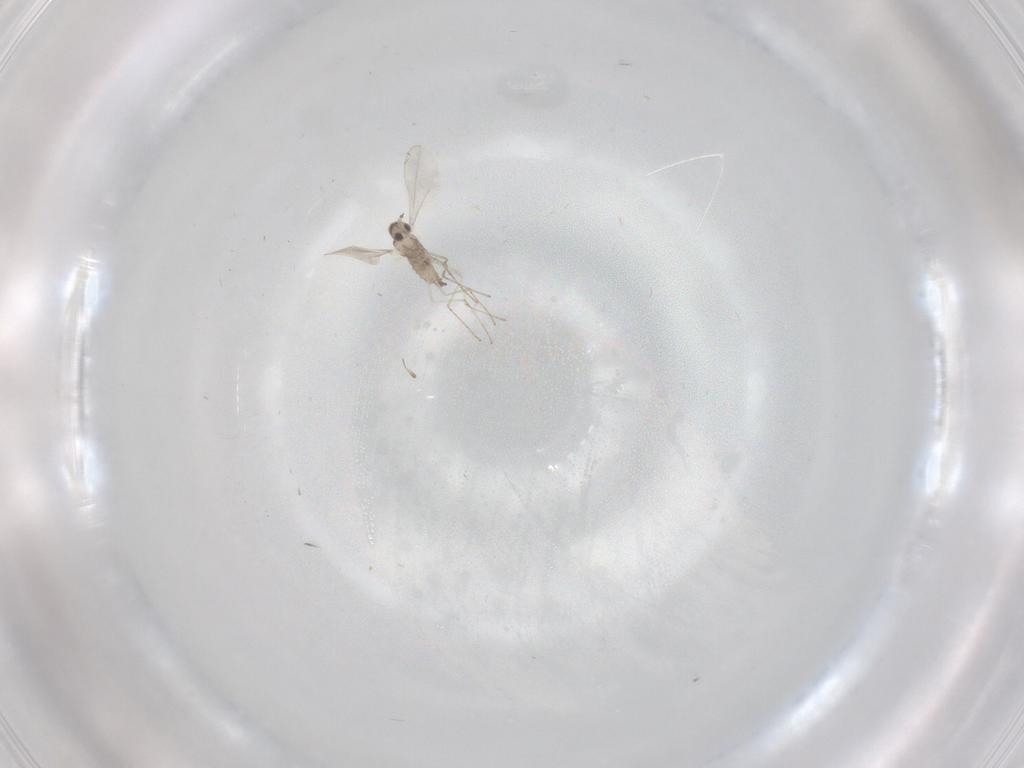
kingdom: Animalia
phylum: Arthropoda
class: Insecta
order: Diptera
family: Cecidomyiidae
